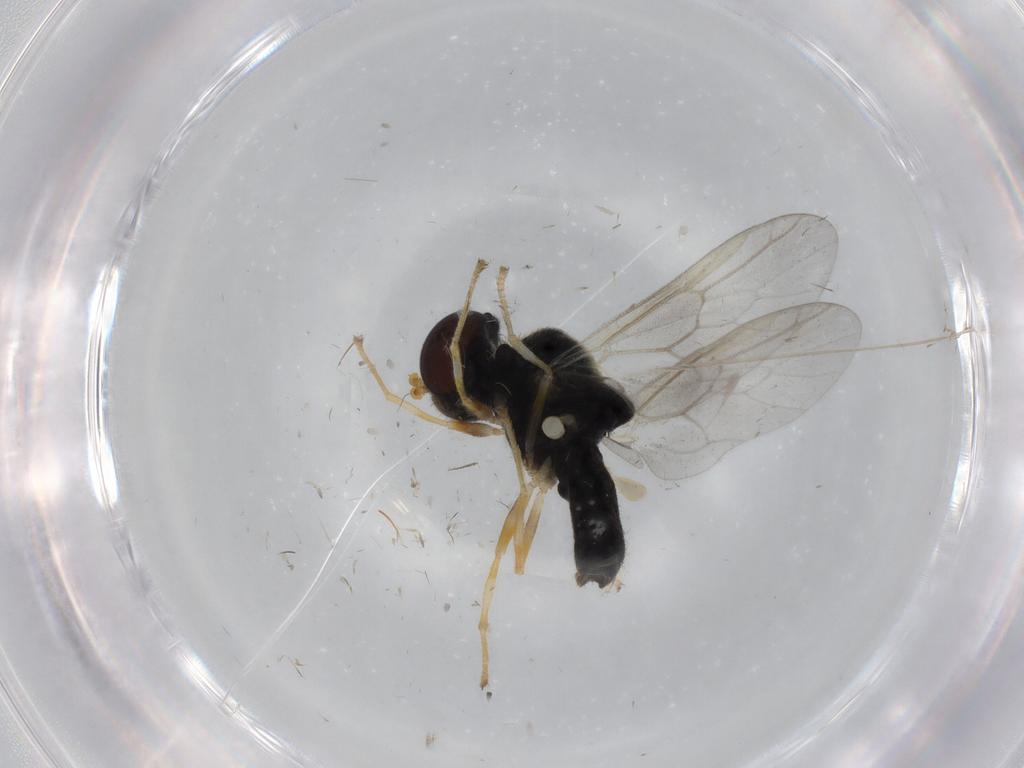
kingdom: Animalia
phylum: Arthropoda
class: Insecta
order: Diptera
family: Stratiomyidae
